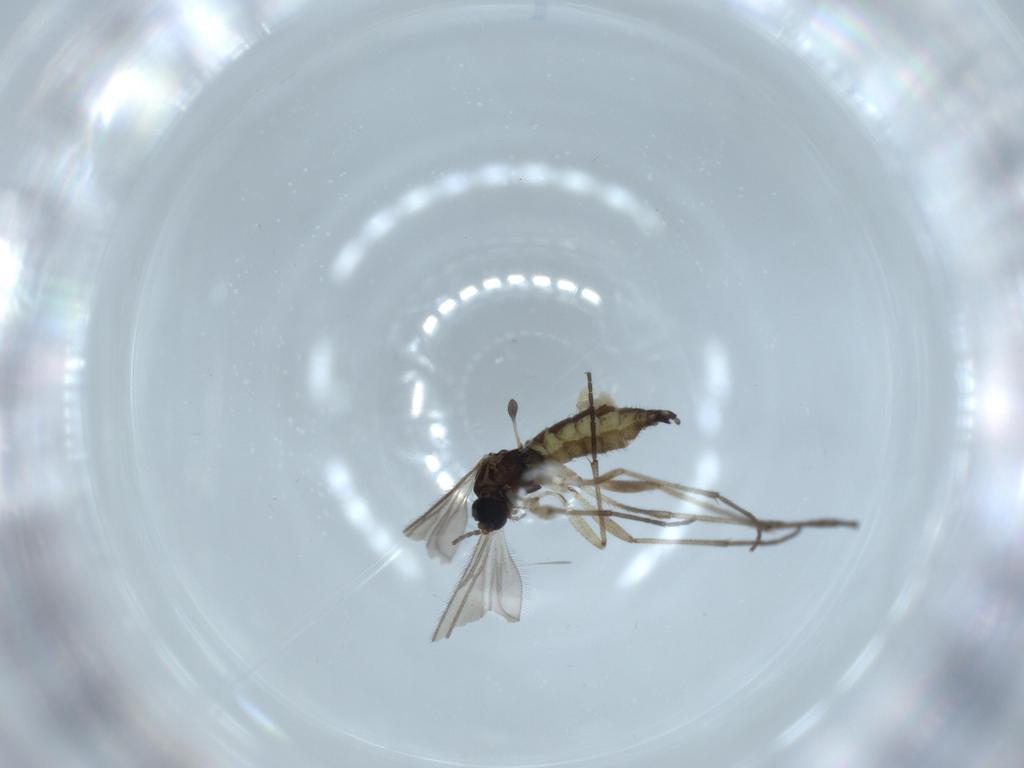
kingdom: Animalia
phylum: Arthropoda
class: Insecta
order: Diptera
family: Sciaridae
